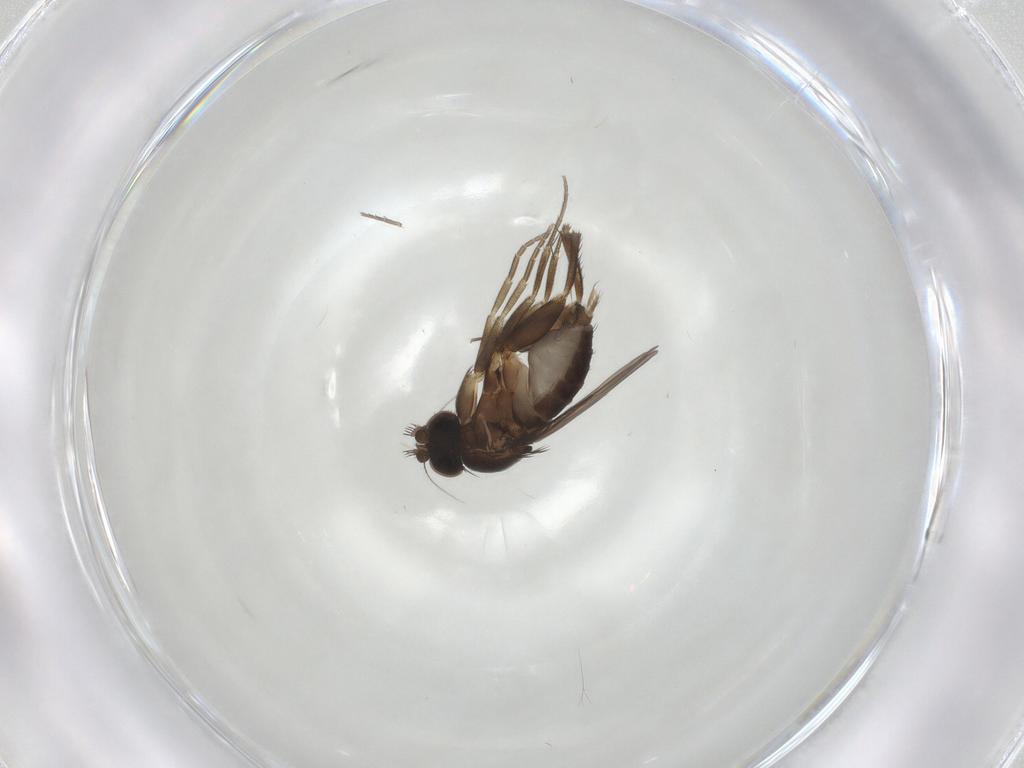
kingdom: Animalia
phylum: Arthropoda
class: Insecta
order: Diptera
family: Phoridae
